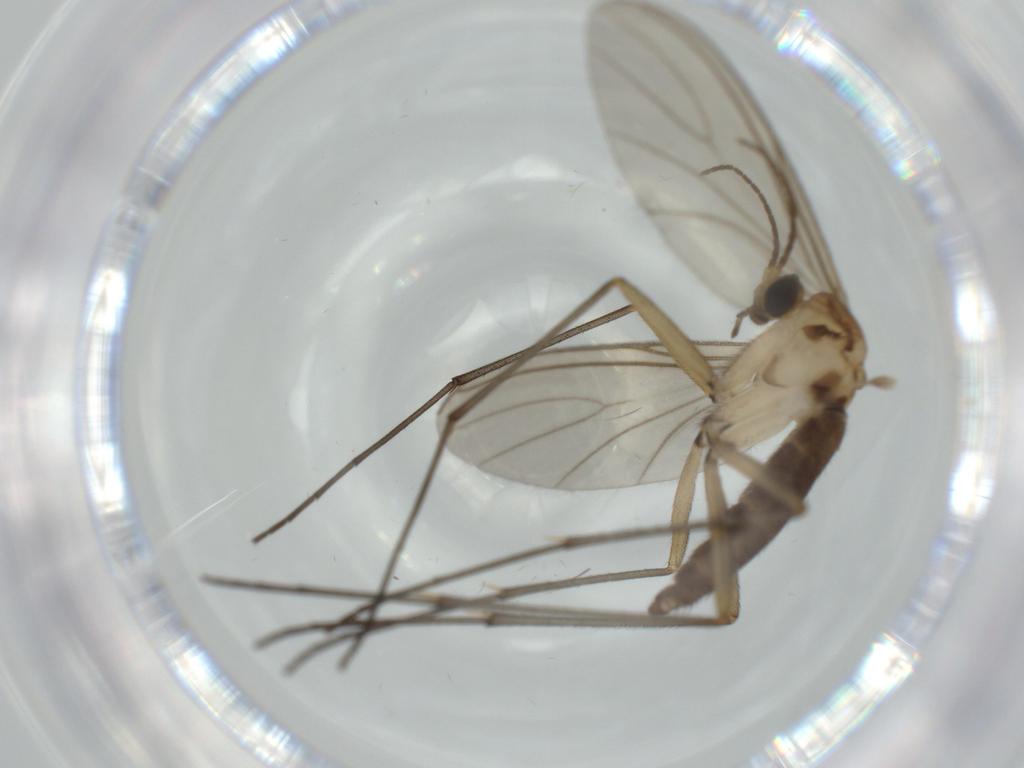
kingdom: Animalia
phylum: Arthropoda
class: Insecta
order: Diptera
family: Sciaridae
